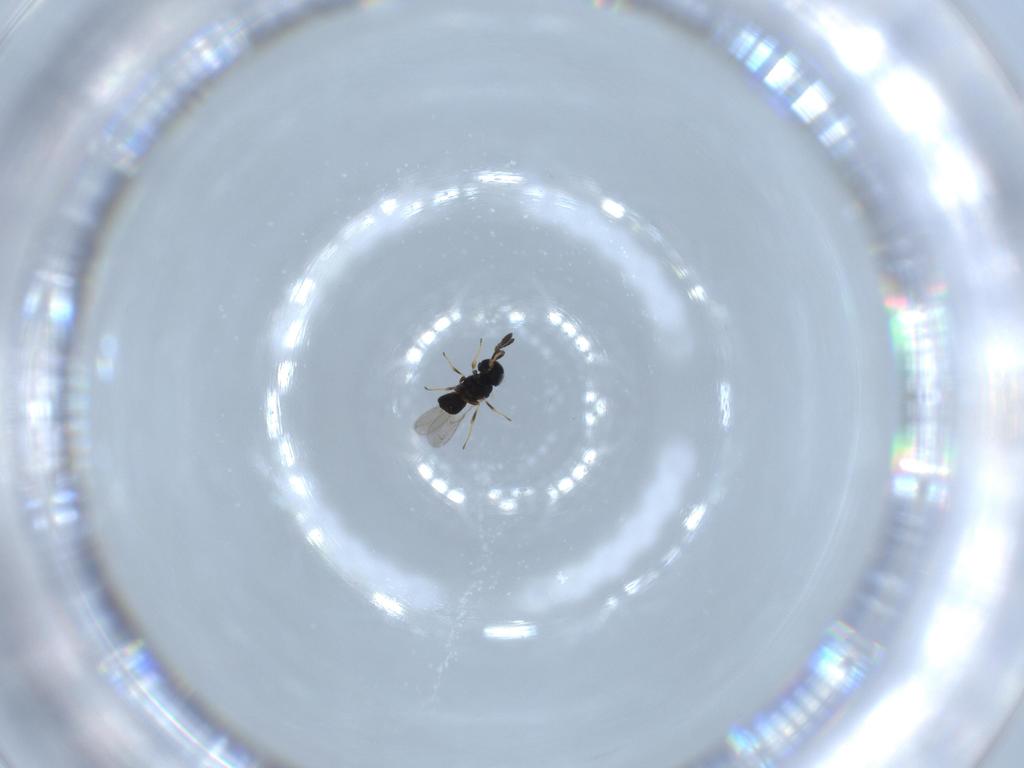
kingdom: Animalia
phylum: Arthropoda
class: Insecta
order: Hymenoptera
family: Scelionidae
